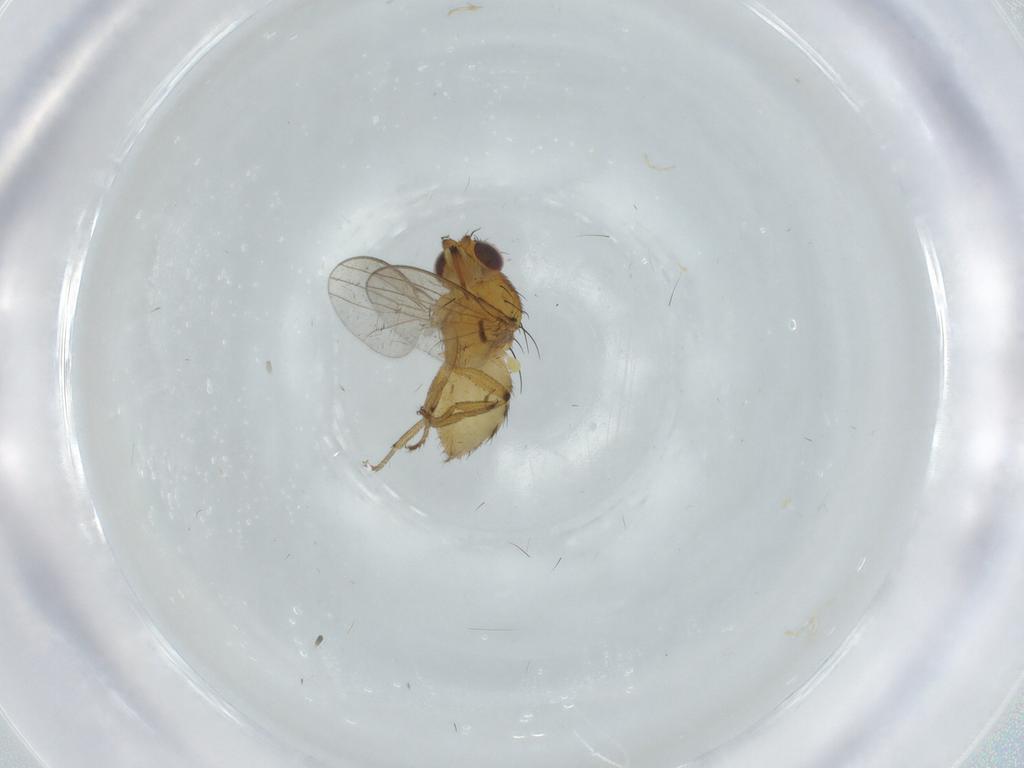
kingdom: Animalia
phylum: Arthropoda
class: Insecta
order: Diptera
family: Milichiidae
